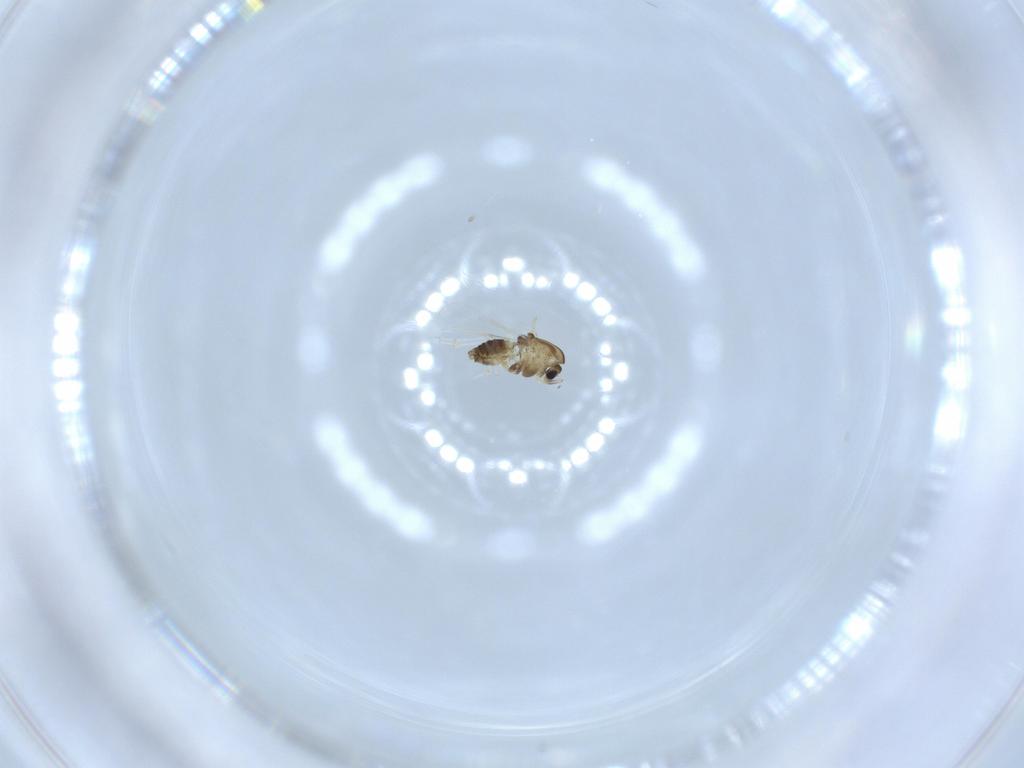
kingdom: Animalia
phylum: Arthropoda
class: Insecta
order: Diptera
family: Chironomidae
